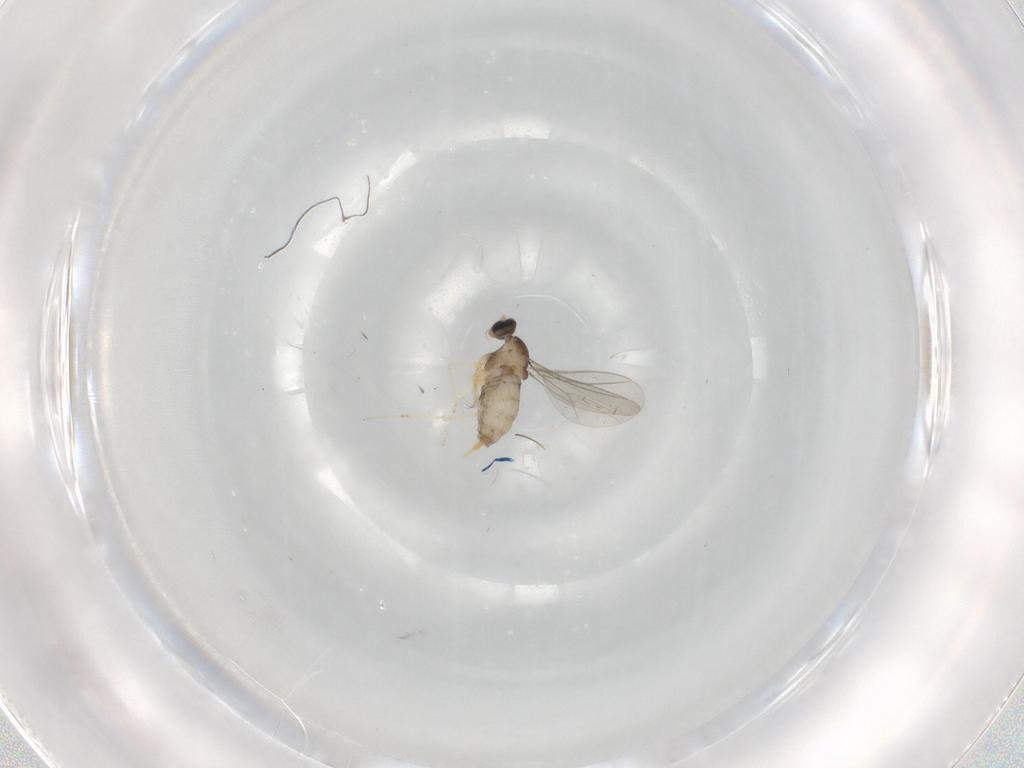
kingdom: Animalia
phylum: Arthropoda
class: Insecta
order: Diptera
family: Cecidomyiidae
